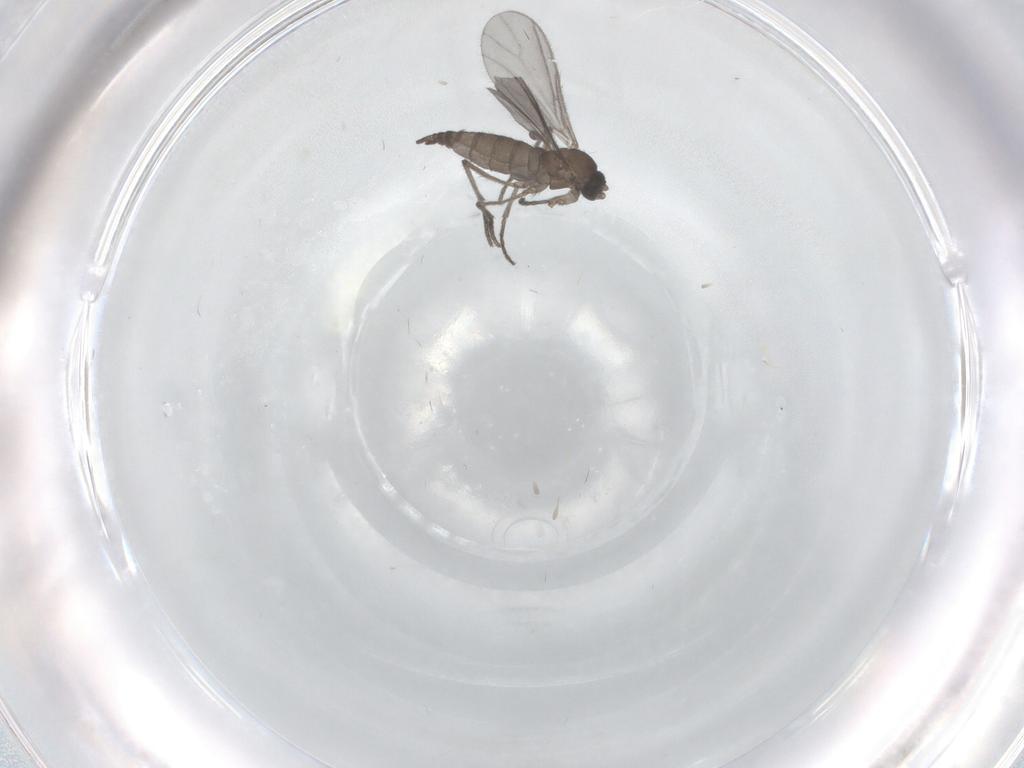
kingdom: Animalia
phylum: Arthropoda
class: Insecta
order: Diptera
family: Sciaridae
